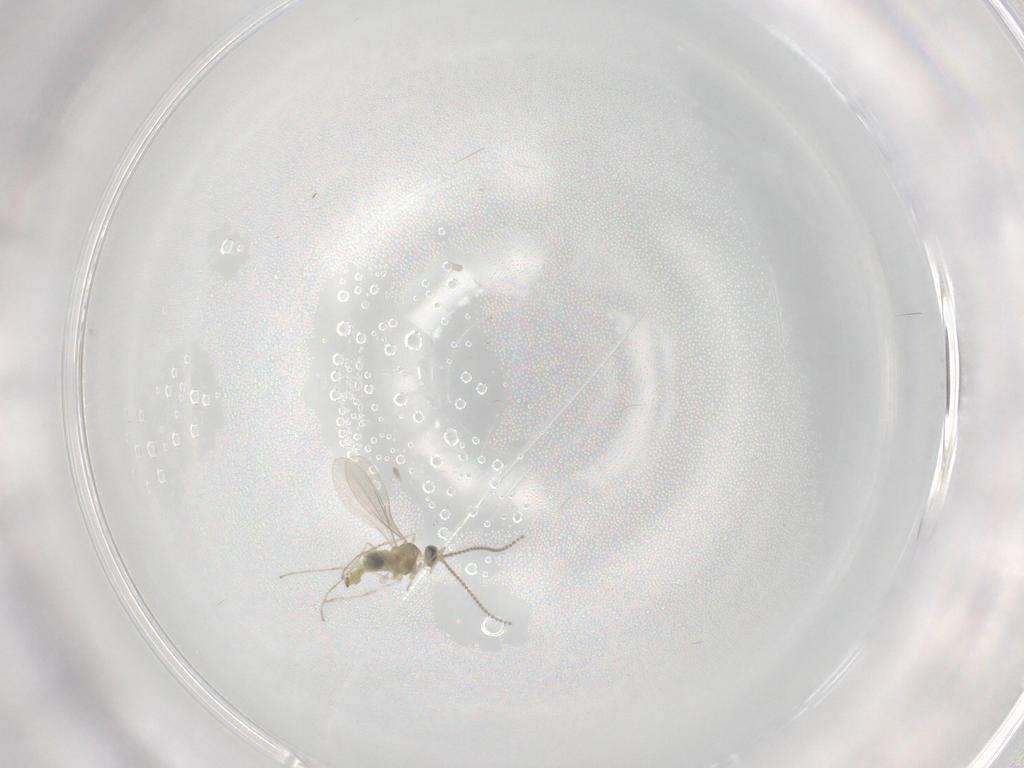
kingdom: Animalia
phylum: Arthropoda
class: Insecta
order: Diptera
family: Cecidomyiidae
